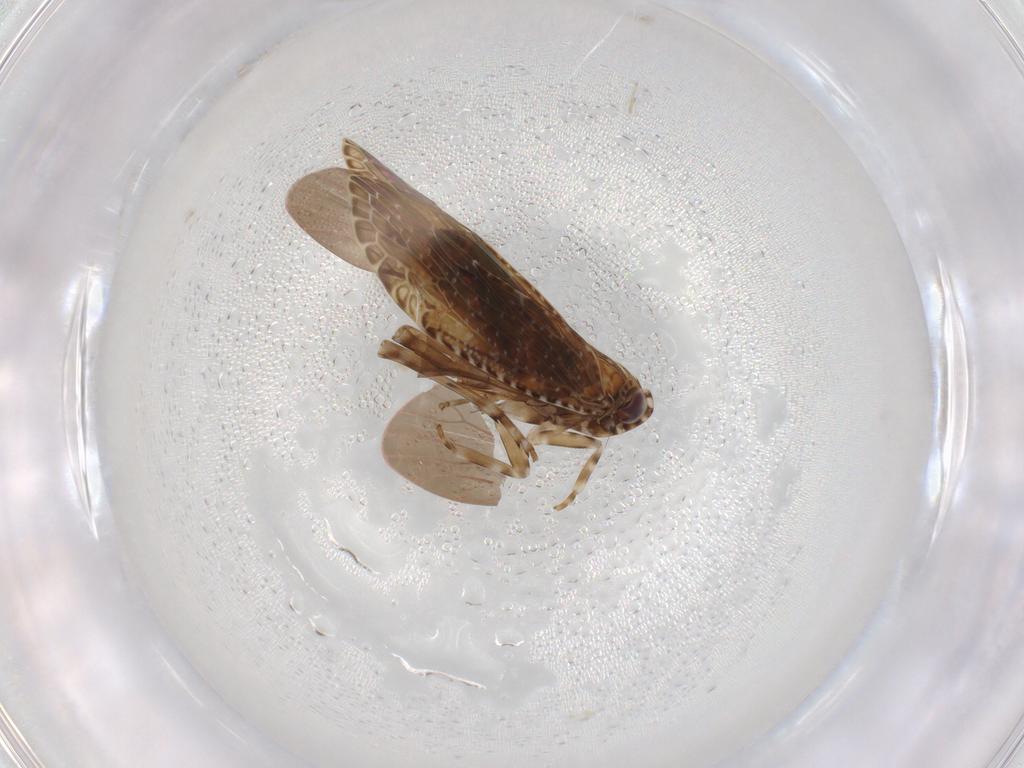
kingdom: Animalia
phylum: Arthropoda
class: Insecta
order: Hemiptera
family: Achilidae
